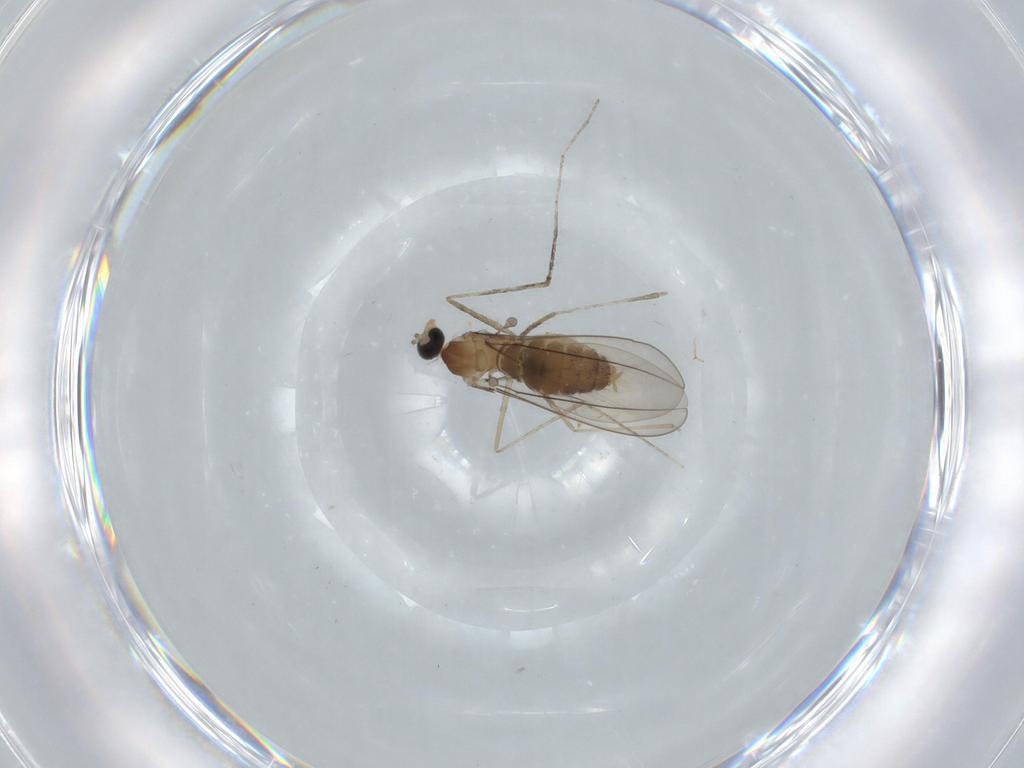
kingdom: Animalia
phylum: Arthropoda
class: Insecta
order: Diptera
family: Cecidomyiidae
